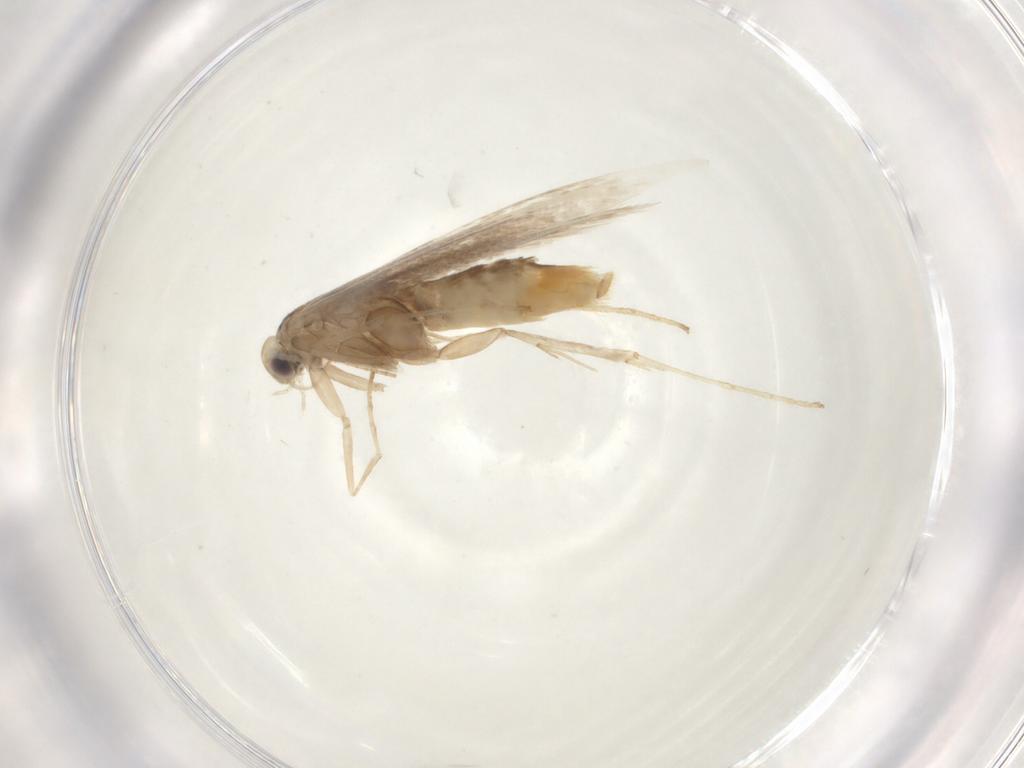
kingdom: Animalia
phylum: Arthropoda
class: Insecta
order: Lepidoptera
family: Gracillariidae
